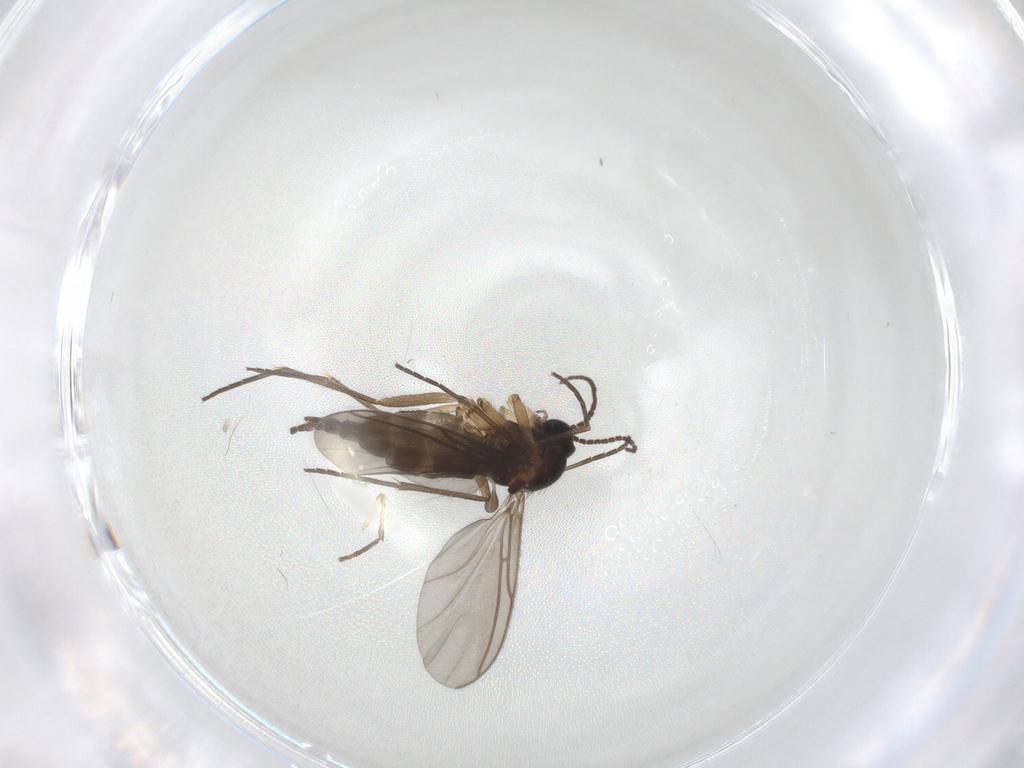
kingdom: Animalia
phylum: Arthropoda
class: Insecta
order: Diptera
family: Sciaridae
